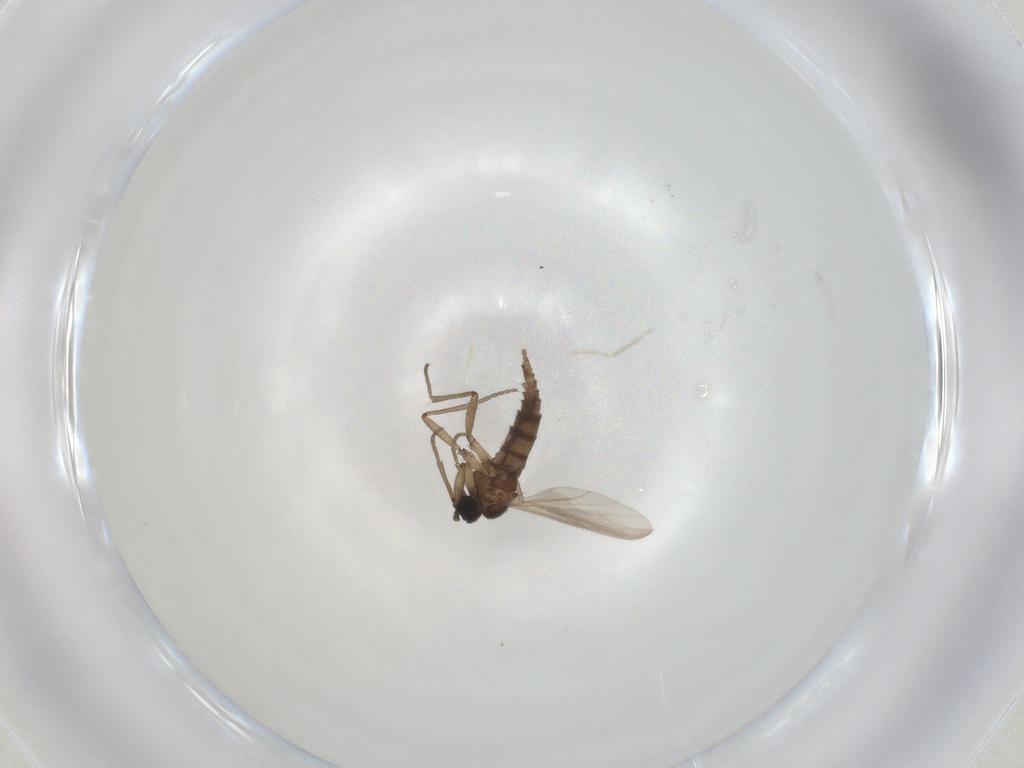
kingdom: Animalia
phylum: Arthropoda
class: Insecta
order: Diptera
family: Sciaridae
